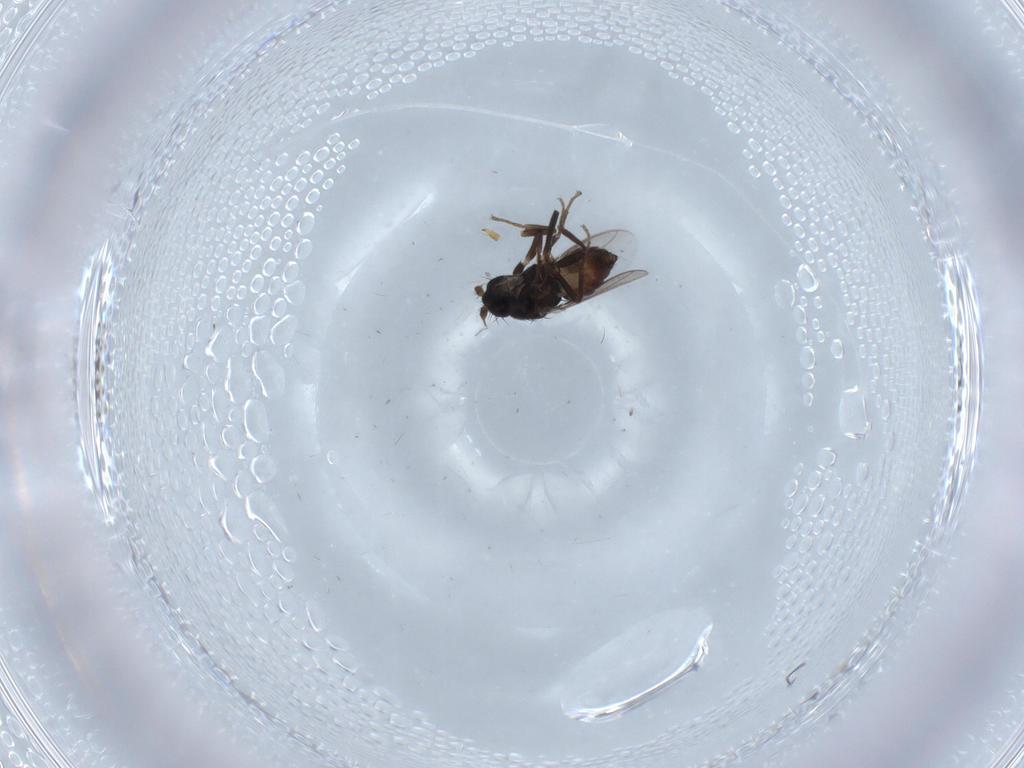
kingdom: Animalia
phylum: Arthropoda
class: Insecta
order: Diptera
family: Sphaeroceridae
